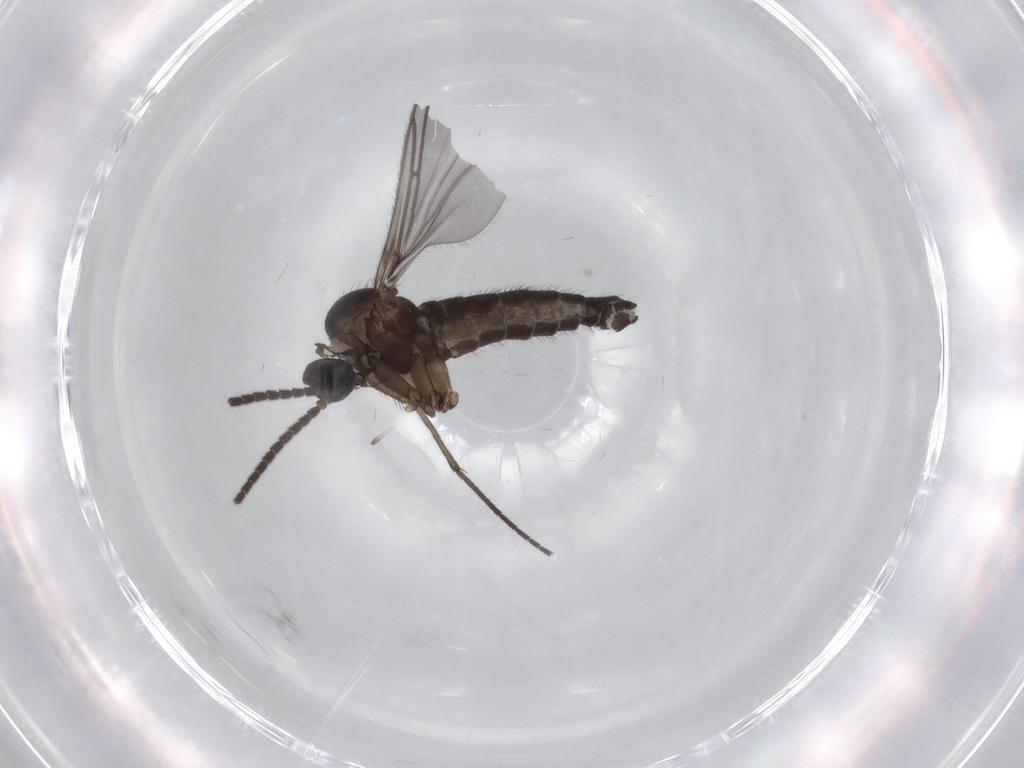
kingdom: Animalia
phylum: Arthropoda
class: Insecta
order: Diptera
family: Sciaridae
